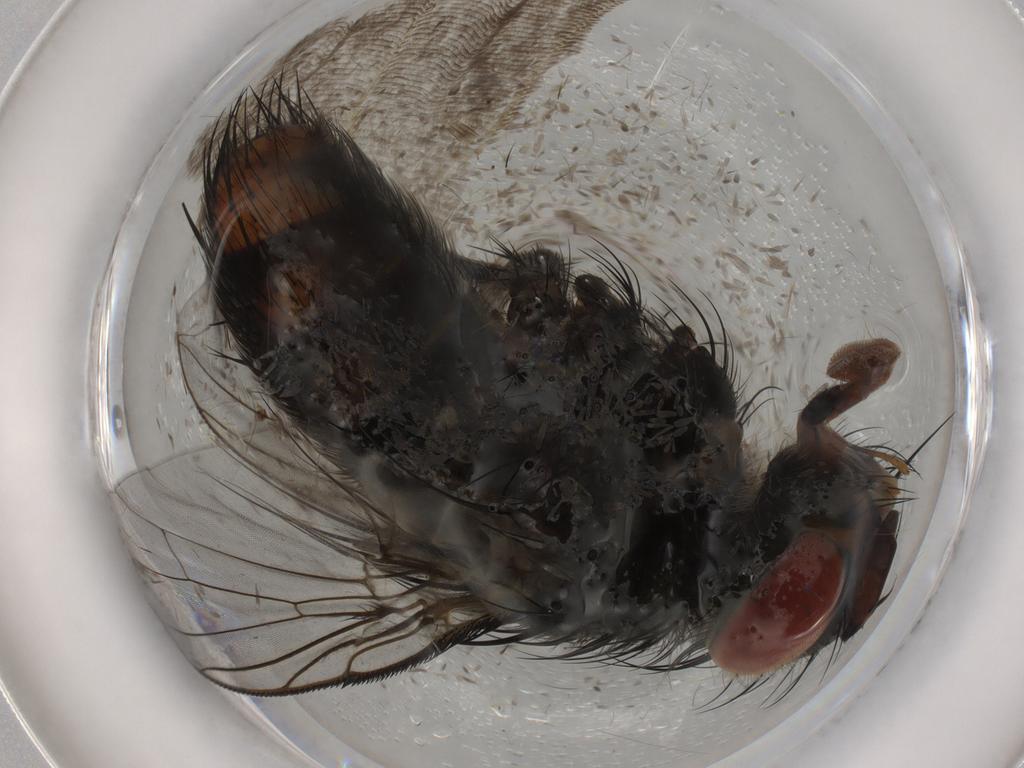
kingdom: Animalia
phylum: Arthropoda
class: Insecta
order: Diptera
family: Tachinidae
